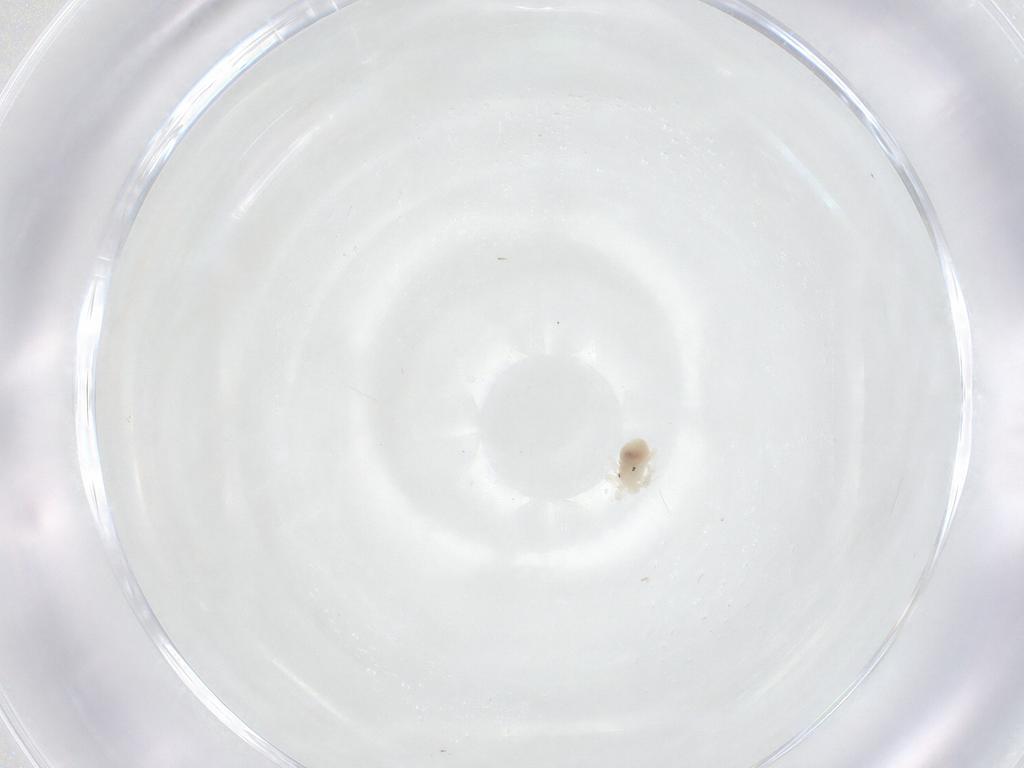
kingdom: Animalia
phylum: Arthropoda
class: Arachnida
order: Trombidiformes
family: Anystidae
